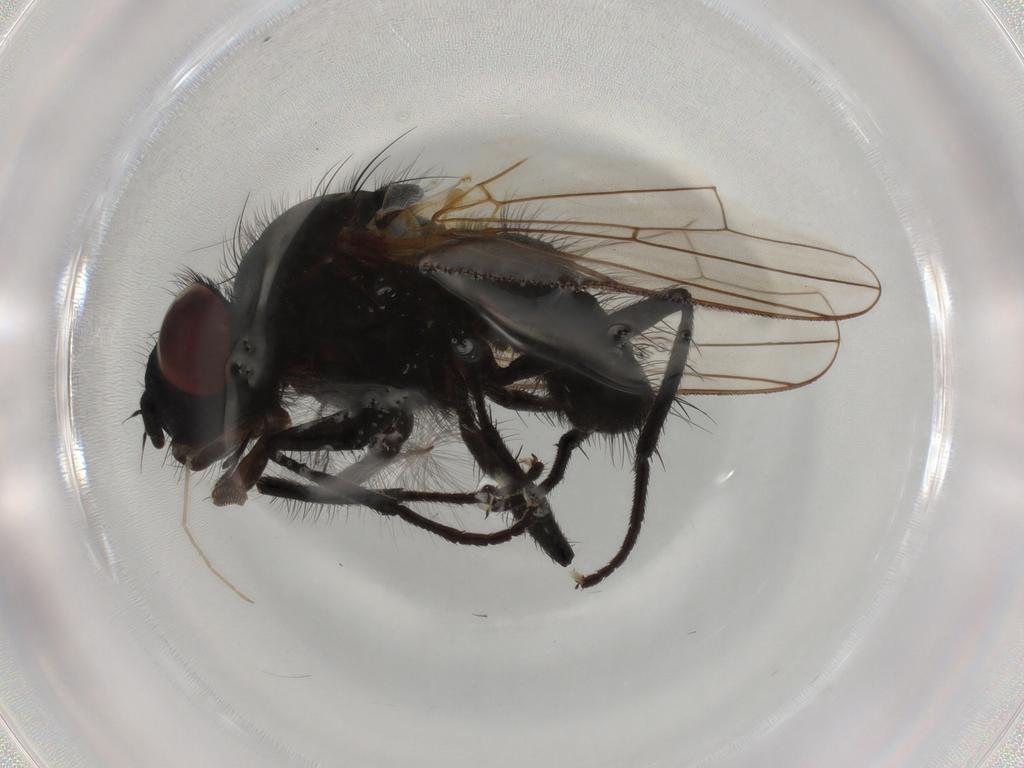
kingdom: Animalia
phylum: Arthropoda
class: Insecta
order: Diptera
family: Anthomyiidae
